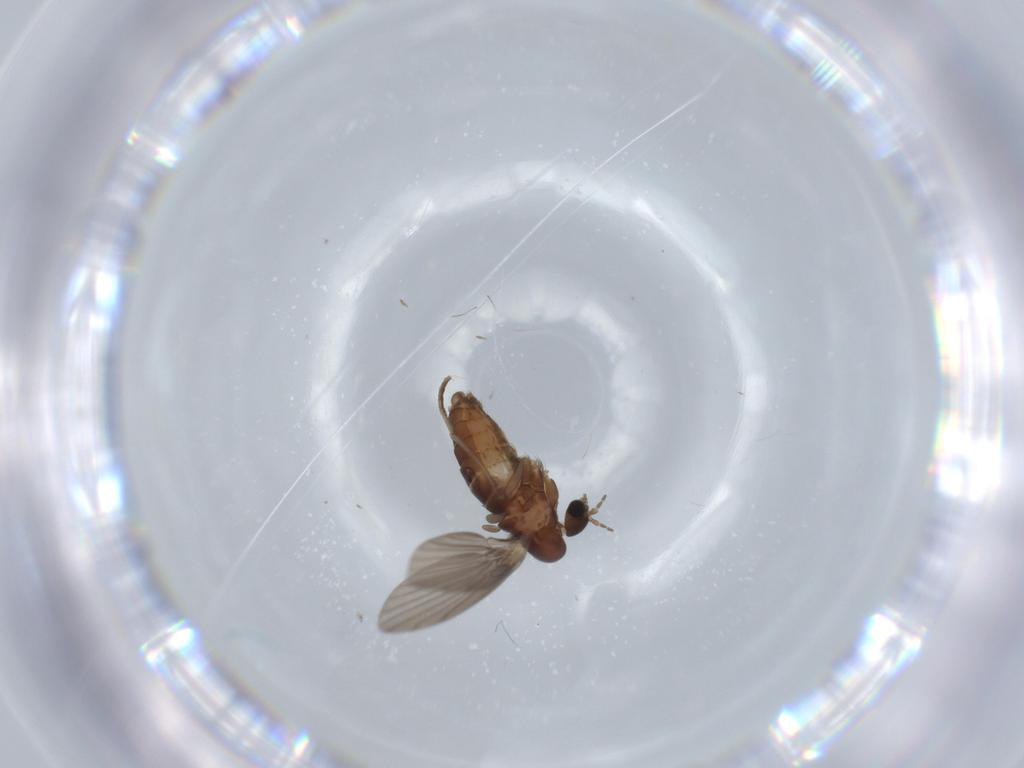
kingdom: Animalia
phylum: Arthropoda
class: Insecta
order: Diptera
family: Psychodidae
